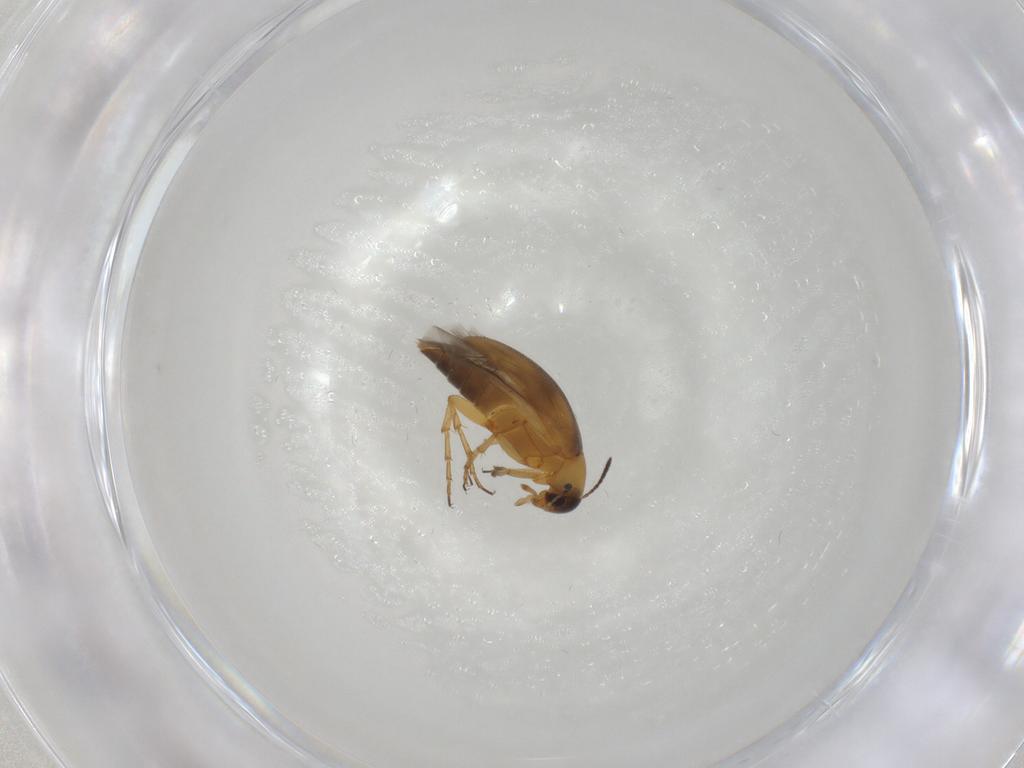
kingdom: Animalia
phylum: Arthropoda
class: Insecta
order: Coleoptera
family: Scraptiidae
